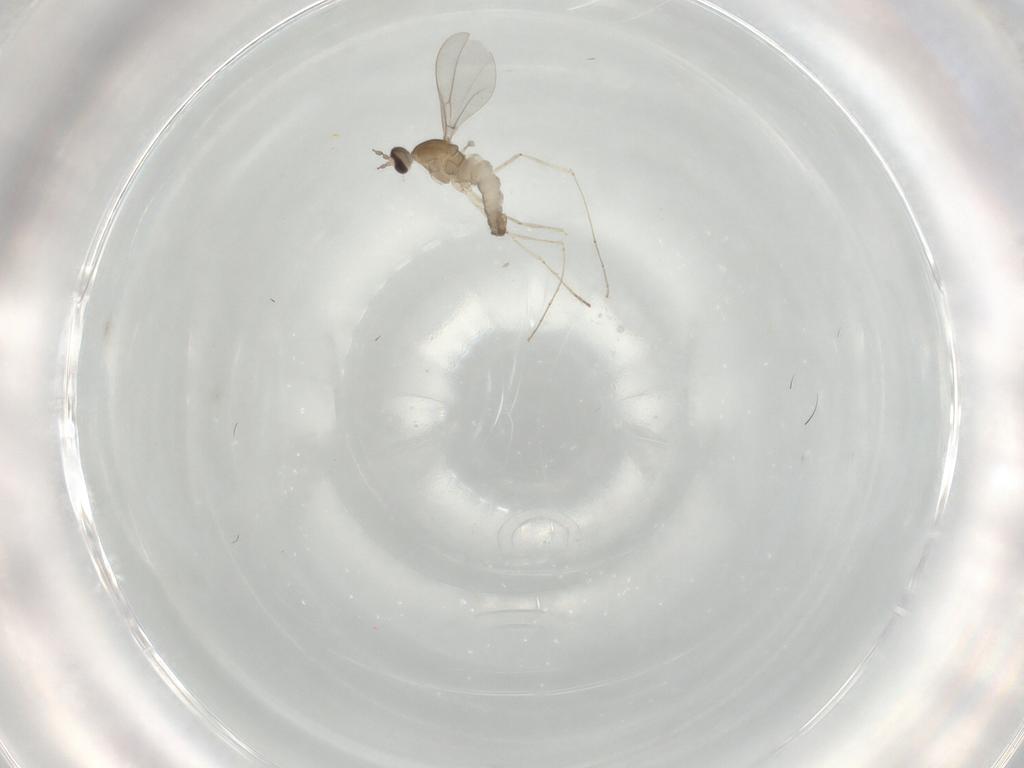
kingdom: Animalia
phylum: Arthropoda
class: Insecta
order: Diptera
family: Cecidomyiidae
